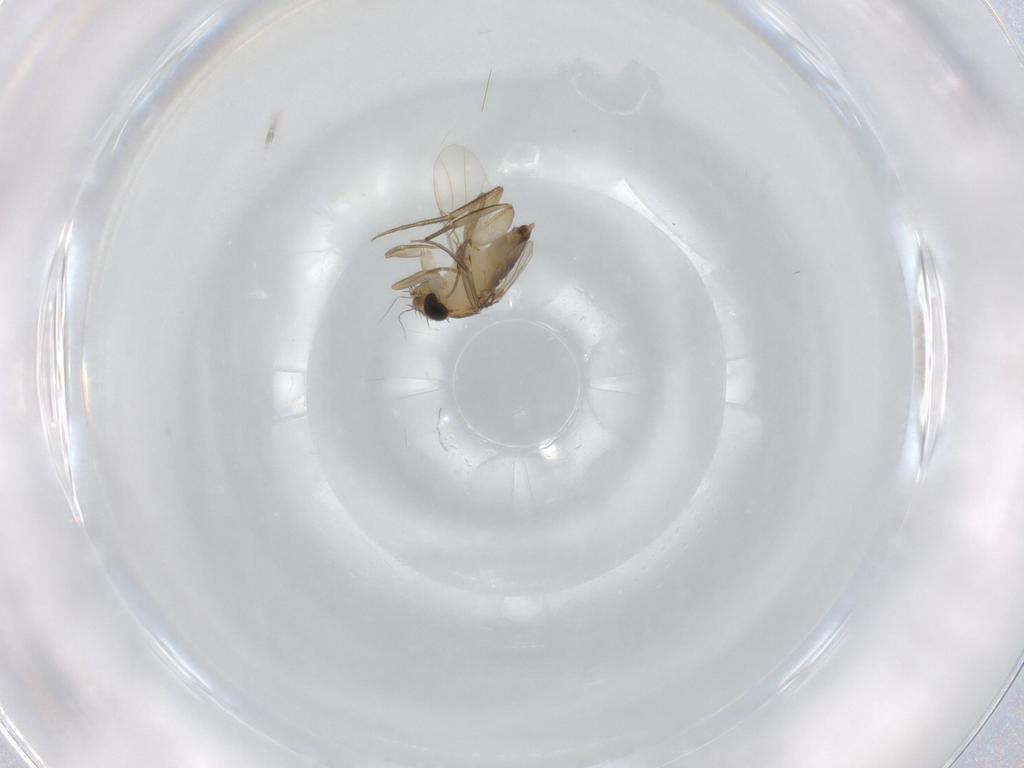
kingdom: Animalia
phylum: Arthropoda
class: Insecta
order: Diptera
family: Phoridae
